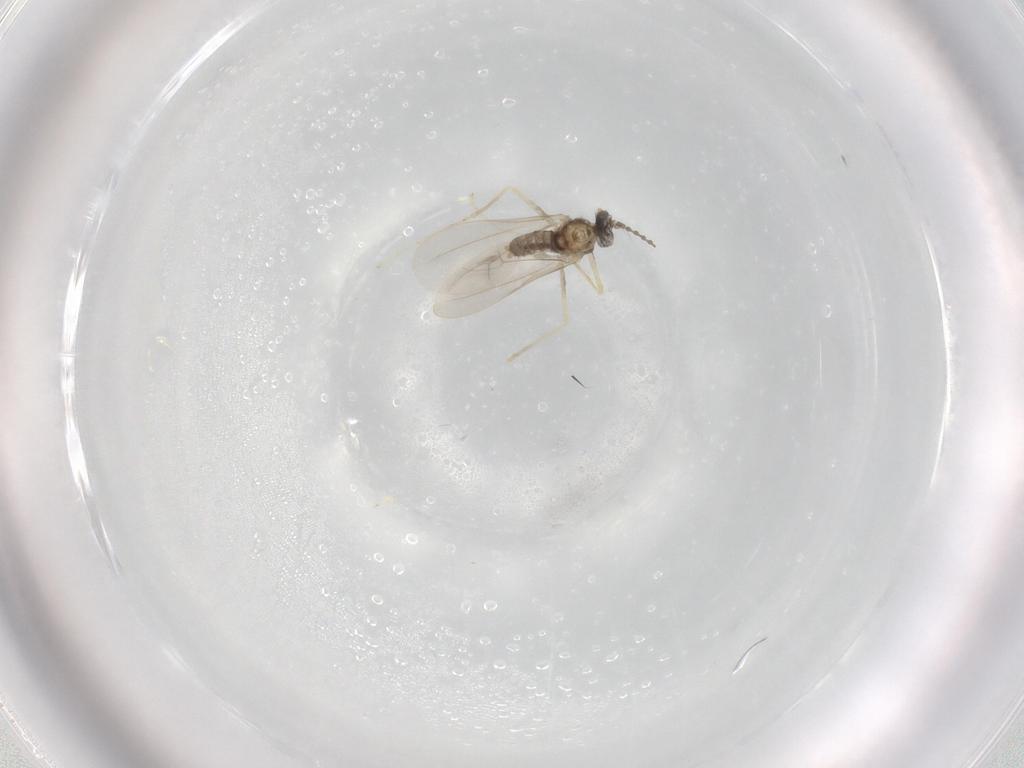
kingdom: Animalia
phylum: Arthropoda
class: Insecta
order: Diptera
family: Cecidomyiidae
